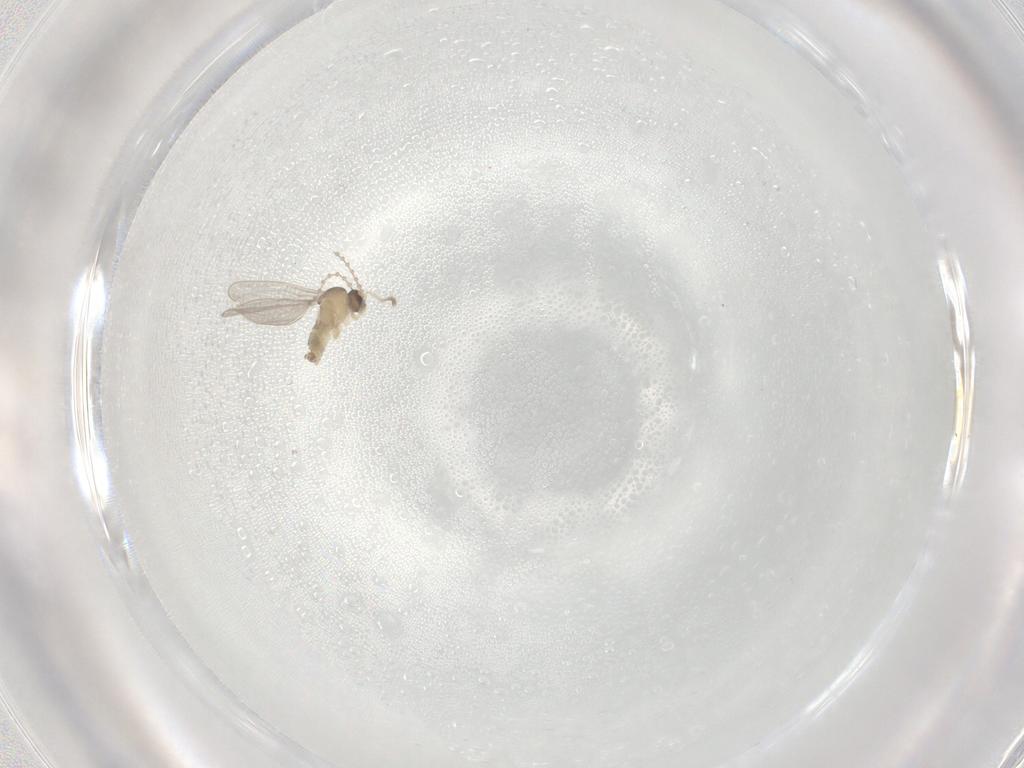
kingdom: Animalia
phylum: Arthropoda
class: Insecta
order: Diptera
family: Cecidomyiidae
